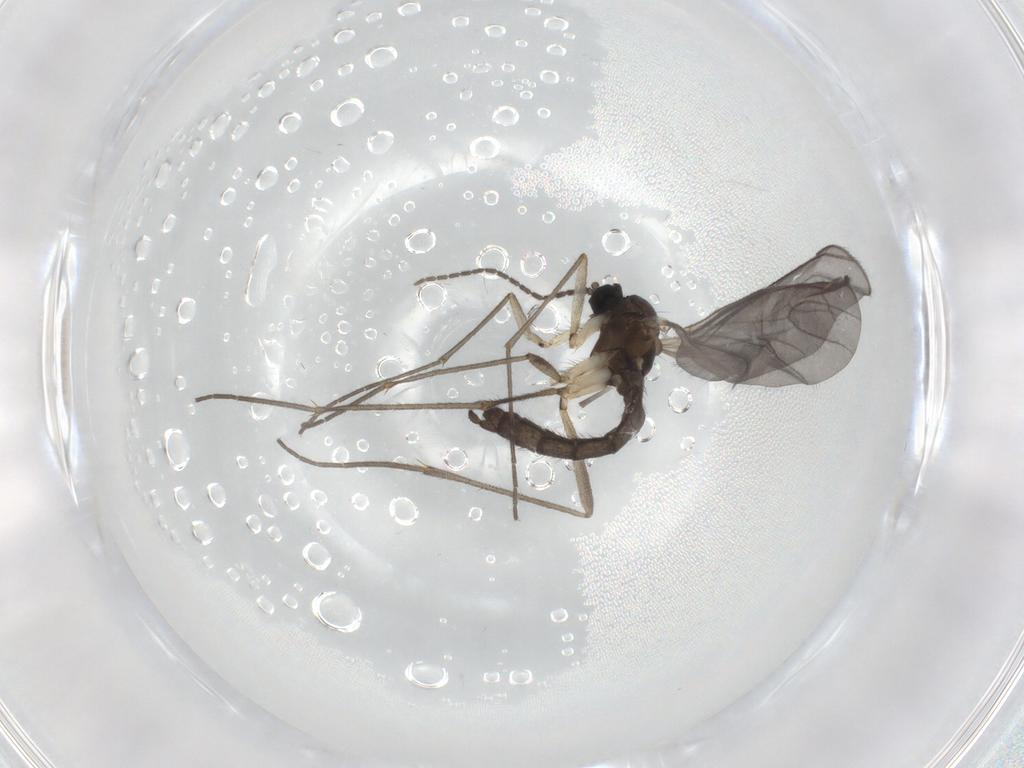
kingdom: Animalia
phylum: Arthropoda
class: Insecta
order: Diptera
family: Sciaridae
